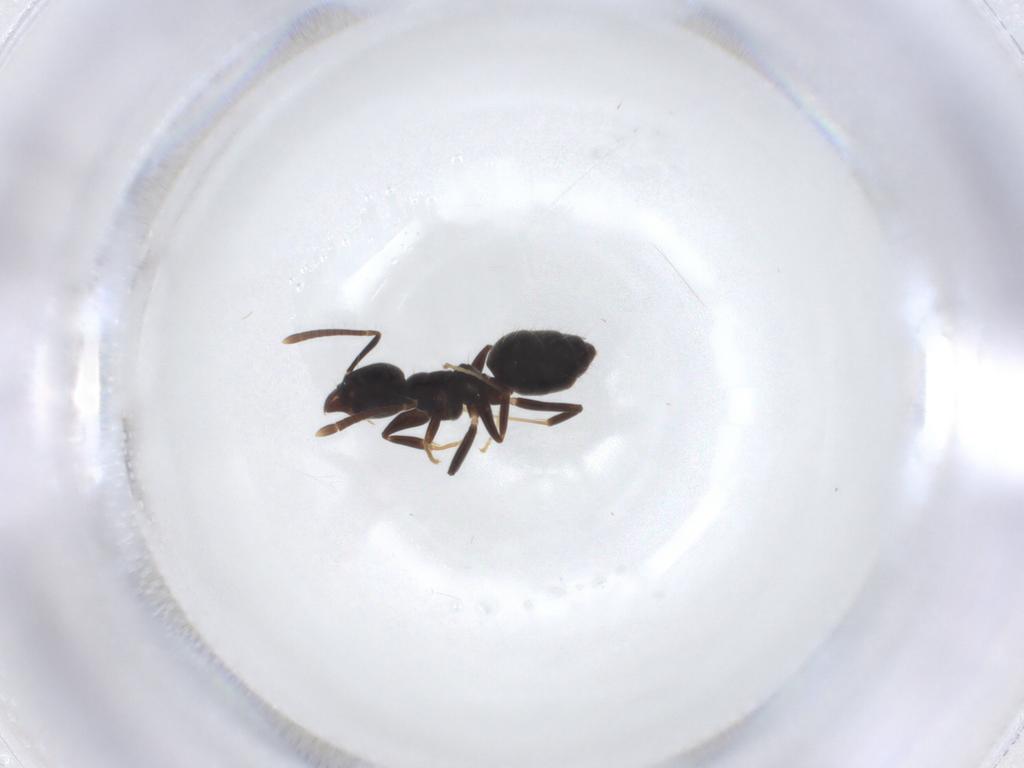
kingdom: Animalia
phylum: Arthropoda
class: Insecta
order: Hymenoptera
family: Formicidae
